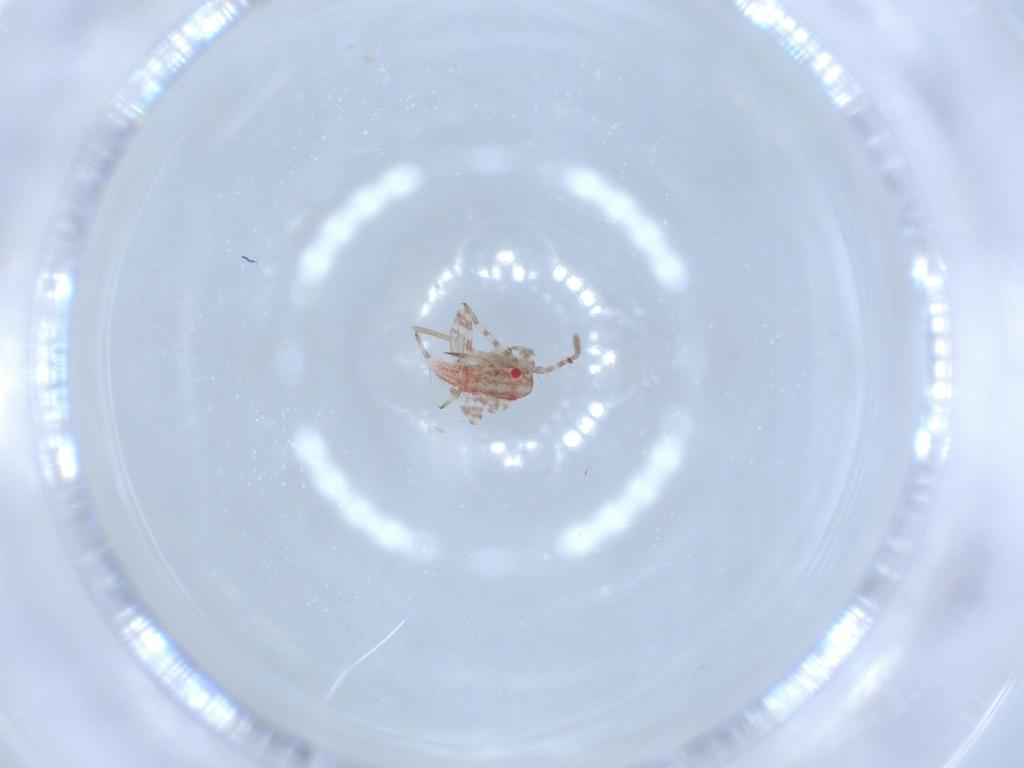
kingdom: Animalia
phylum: Arthropoda
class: Insecta
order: Hemiptera
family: Miridae
